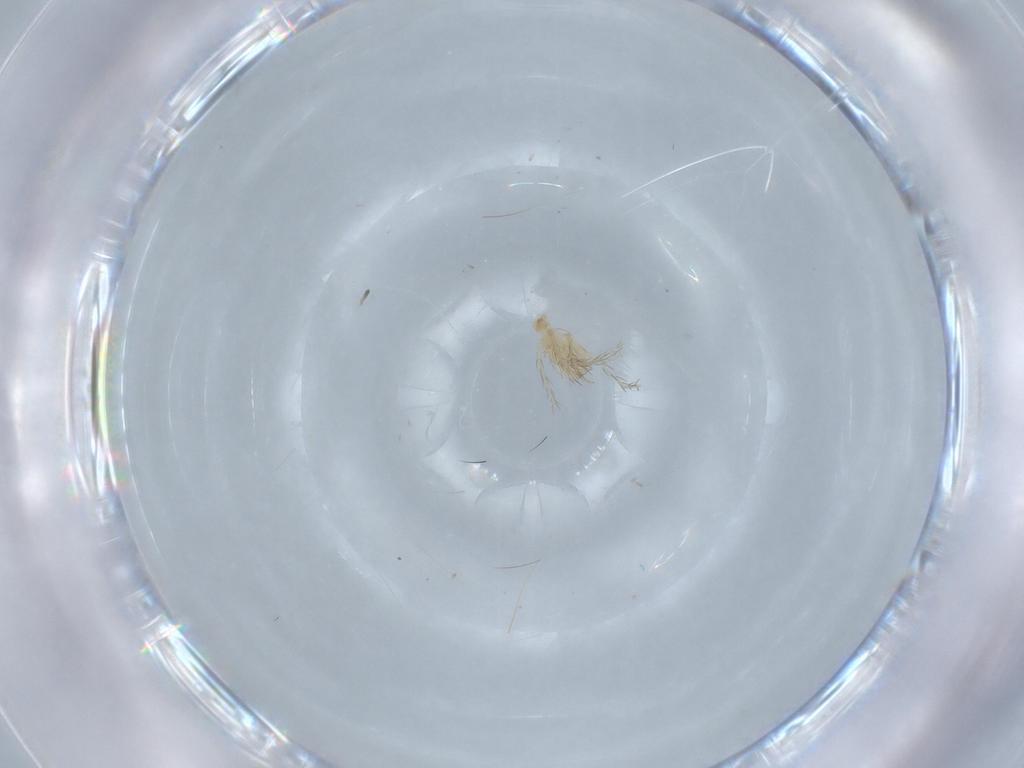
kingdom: Animalia
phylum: Arthropoda
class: Arachnida
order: Trombidiformes
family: Erythraeidae
